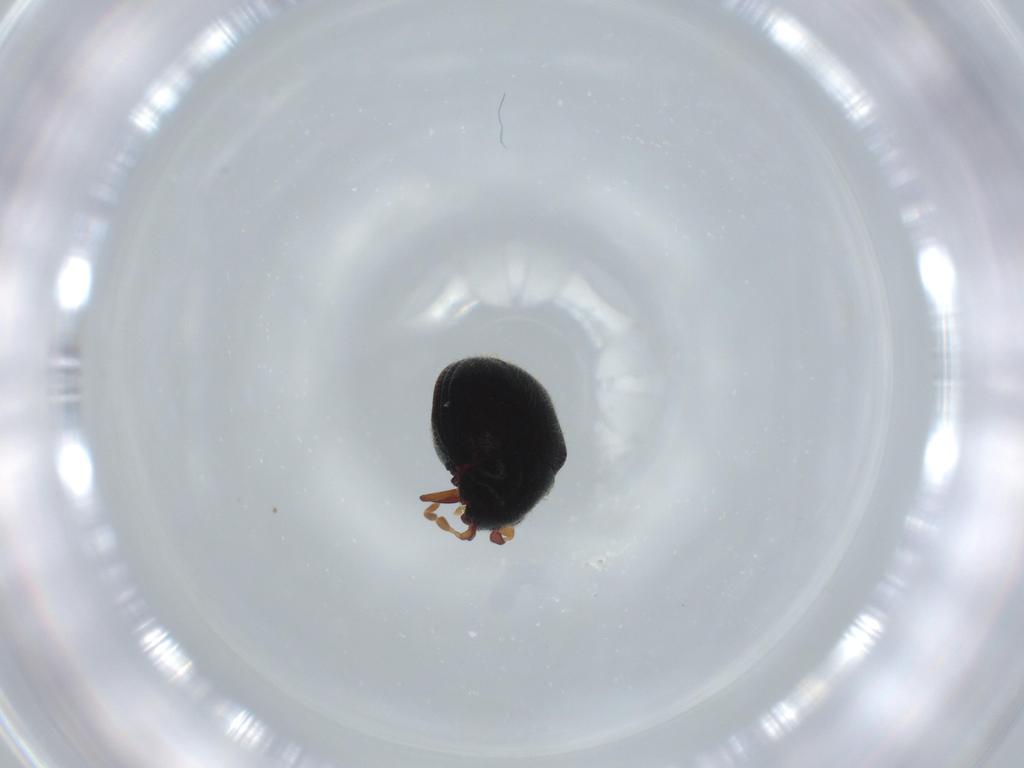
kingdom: Animalia
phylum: Arthropoda
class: Insecta
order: Coleoptera
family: Ptinidae
